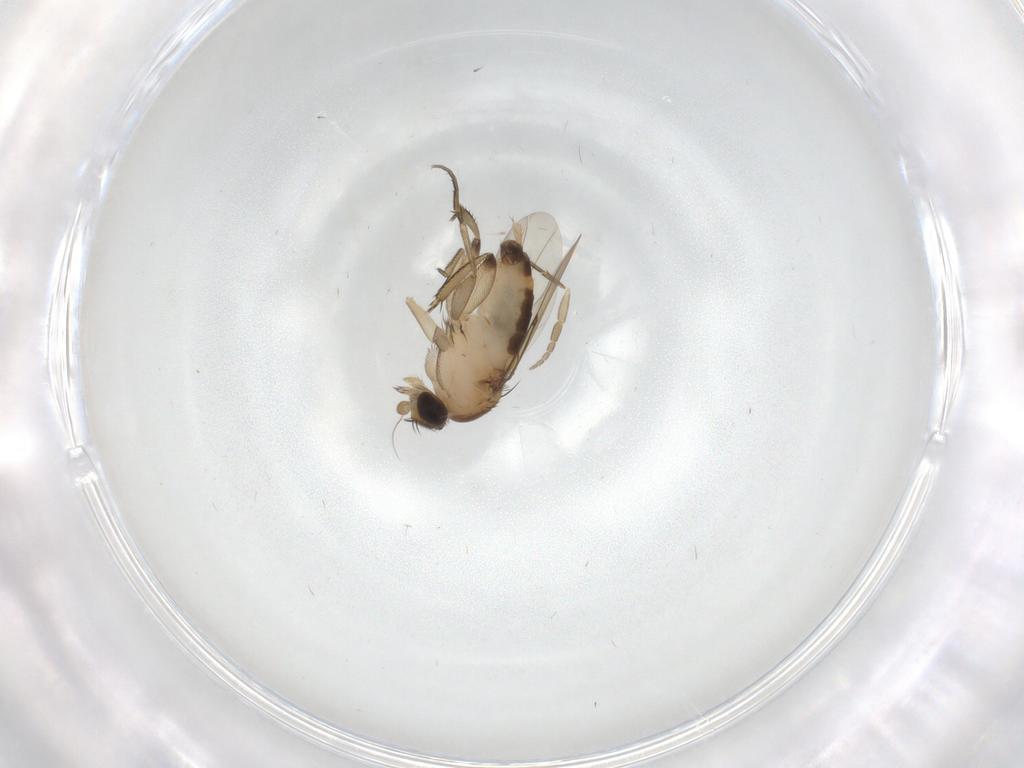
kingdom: Animalia
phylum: Arthropoda
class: Insecta
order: Diptera
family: Phoridae
